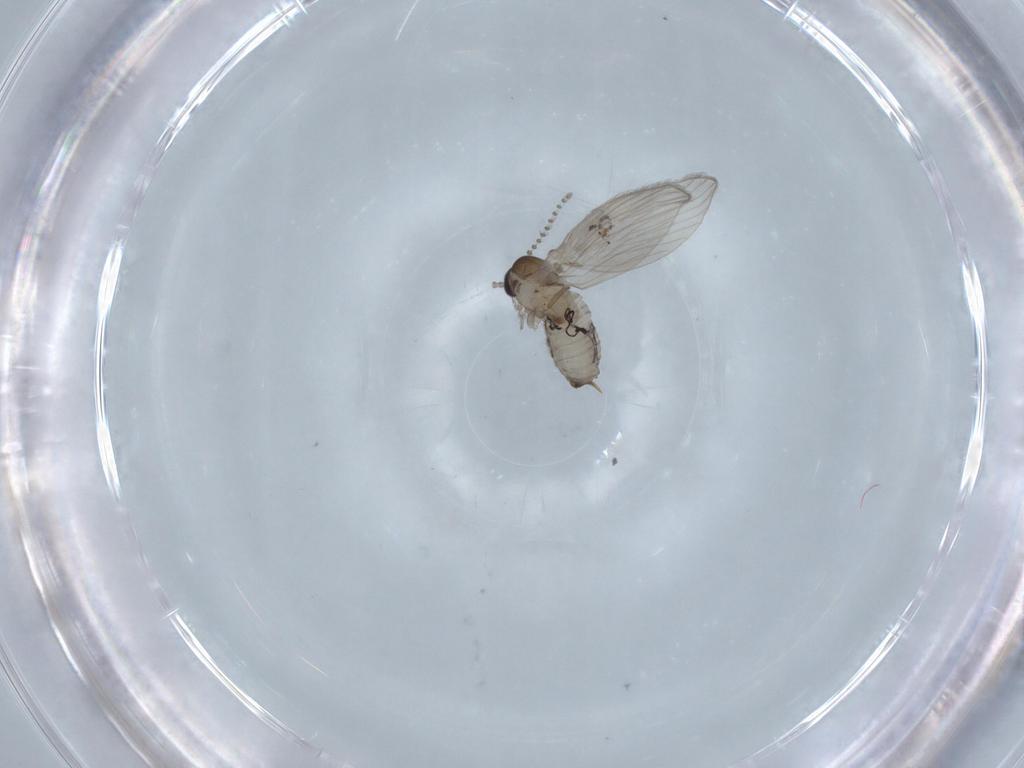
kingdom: Animalia
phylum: Arthropoda
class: Insecta
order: Diptera
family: Psychodidae
